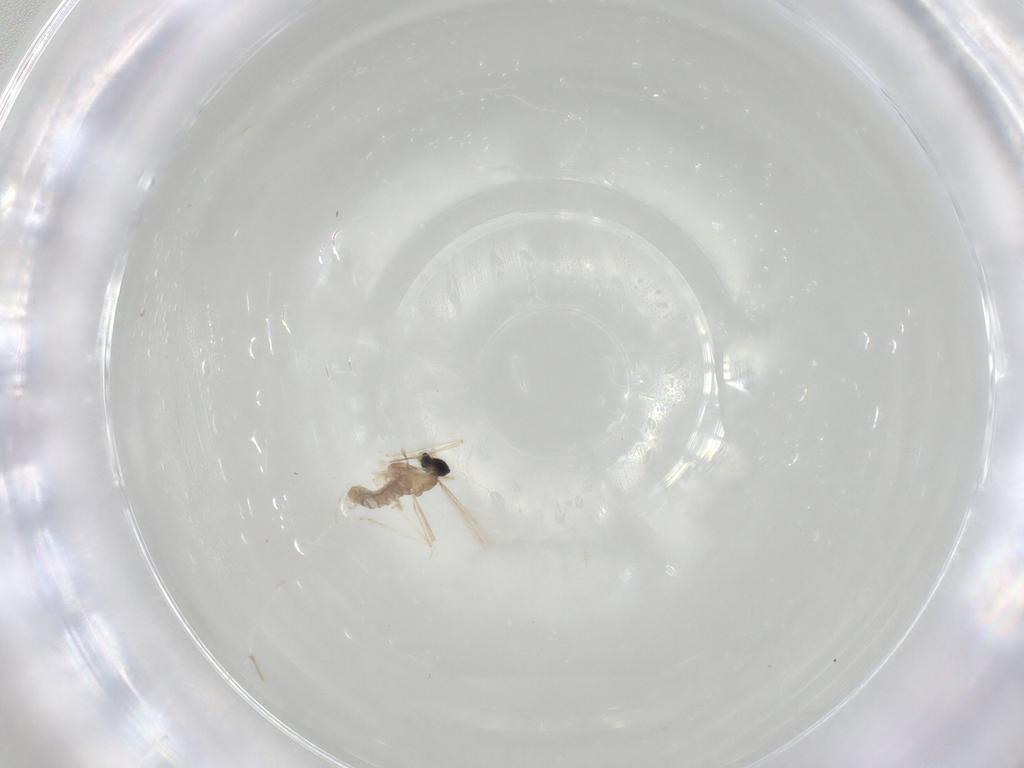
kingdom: Animalia
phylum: Arthropoda
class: Insecta
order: Diptera
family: Cecidomyiidae
